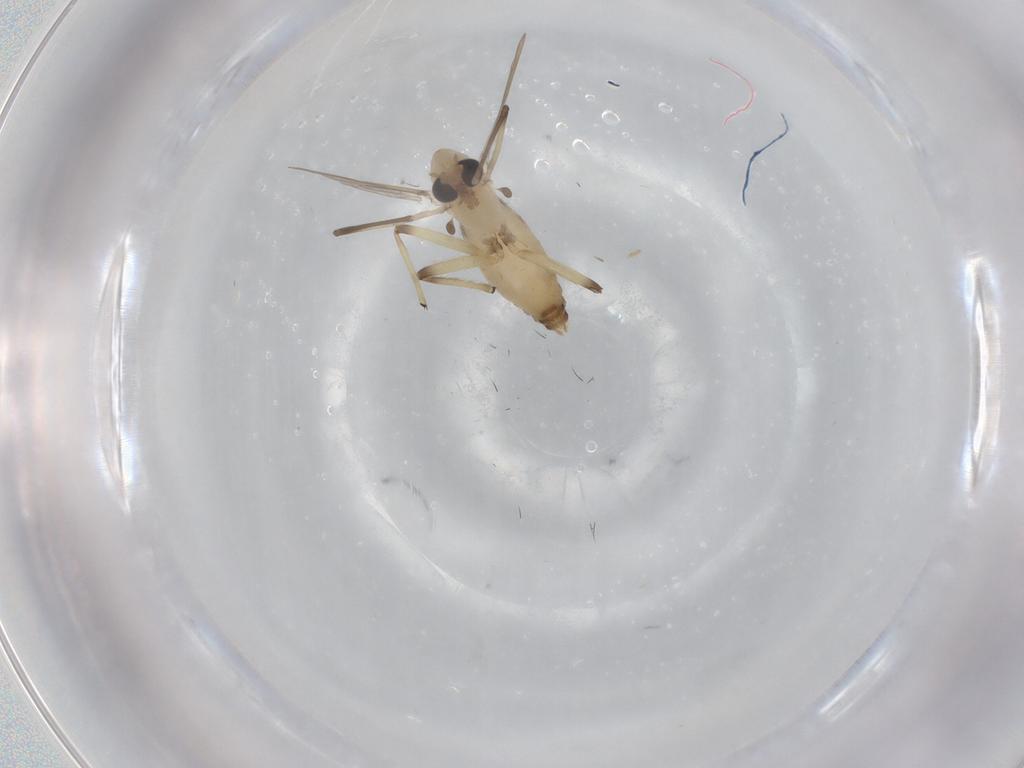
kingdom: Animalia
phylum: Arthropoda
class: Insecta
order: Diptera
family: Chironomidae
